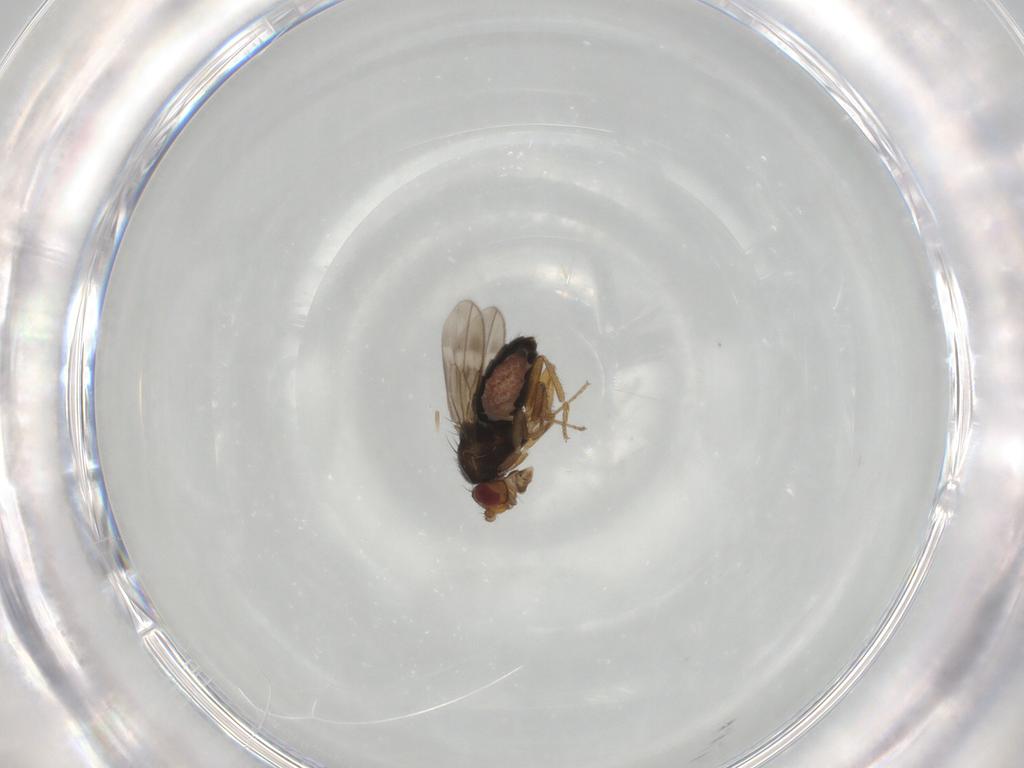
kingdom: Animalia
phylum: Arthropoda
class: Insecta
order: Diptera
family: Sphaeroceridae
